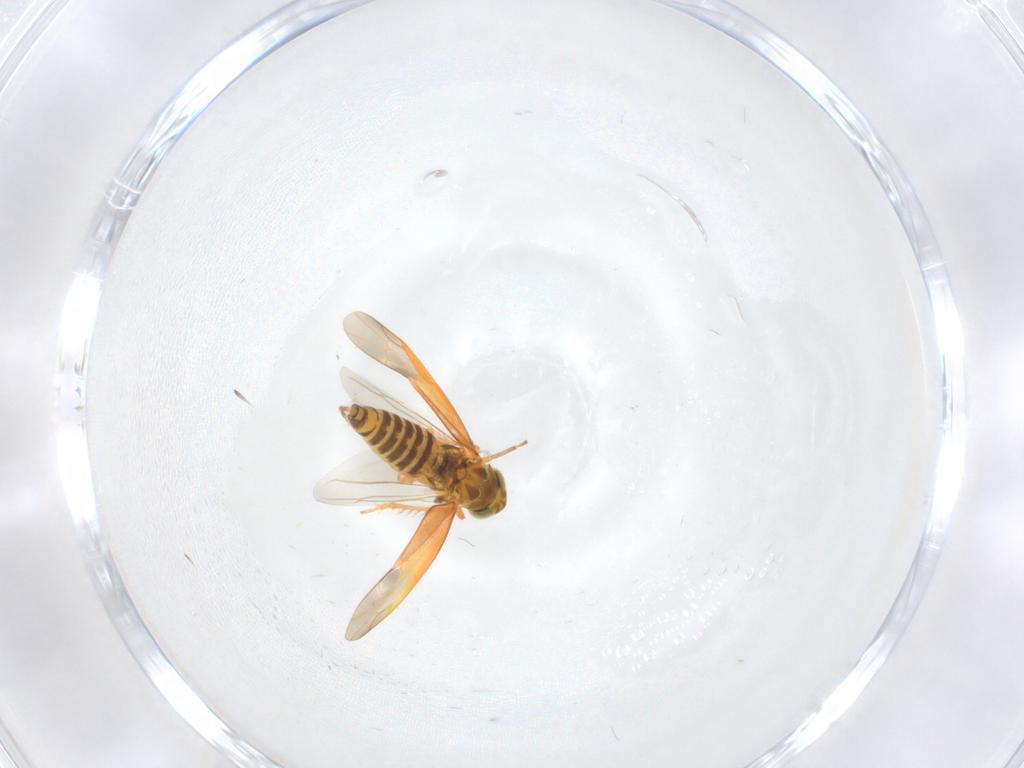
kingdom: Animalia
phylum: Arthropoda
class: Insecta
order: Hemiptera
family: Cicadellidae
